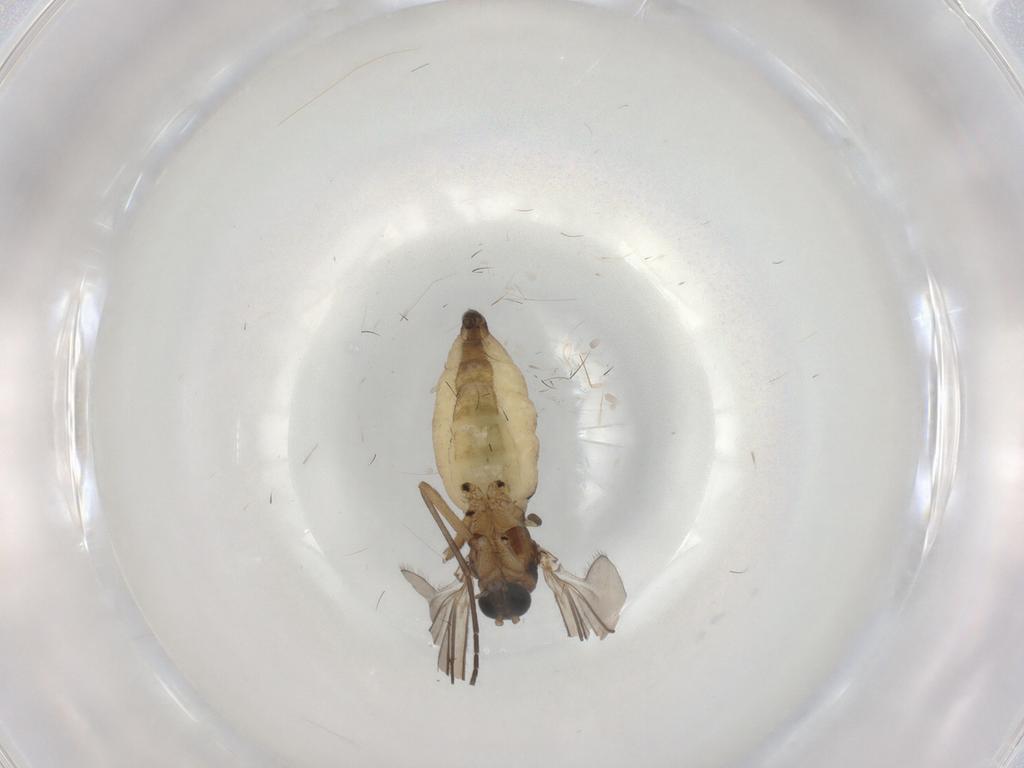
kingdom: Animalia
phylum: Arthropoda
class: Insecta
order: Diptera
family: Sciaridae
